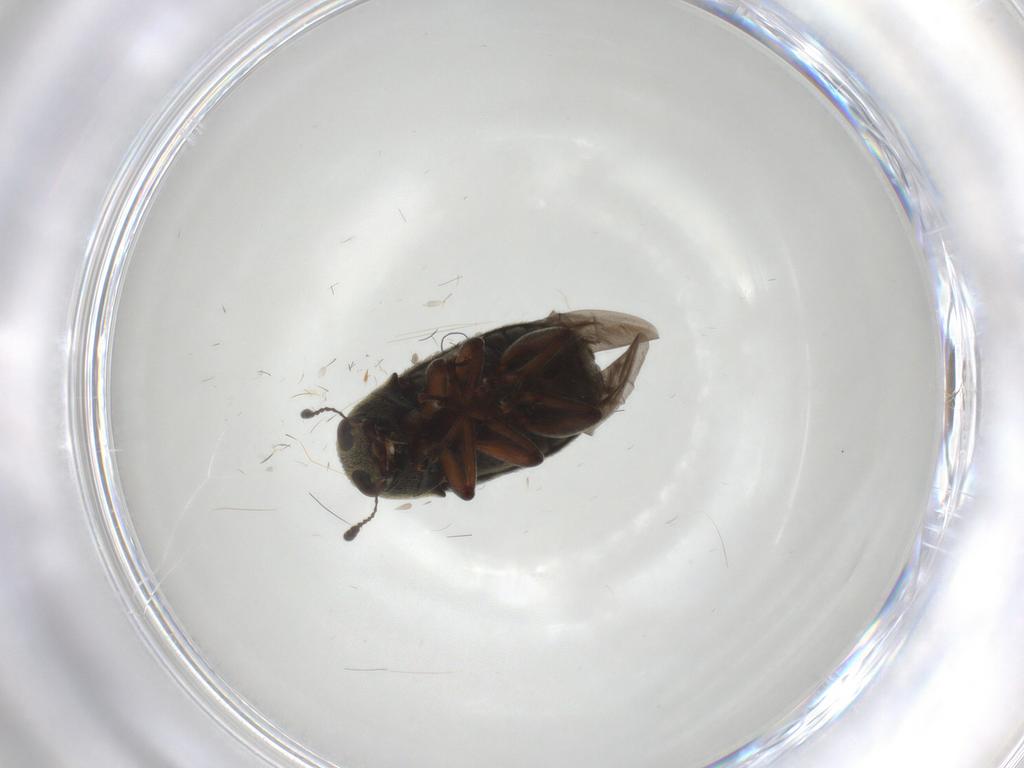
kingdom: Animalia
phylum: Arthropoda
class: Insecta
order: Coleoptera
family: Anthribidae
